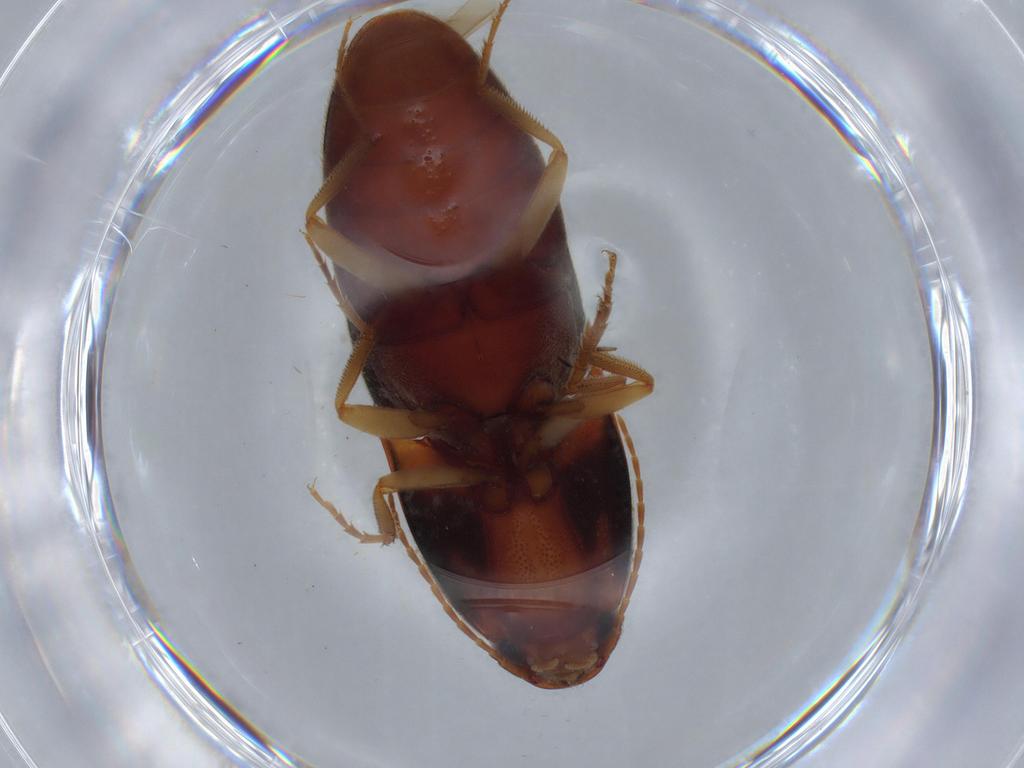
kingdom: Animalia
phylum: Arthropoda
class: Insecta
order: Coleoptera
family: Elateridae
